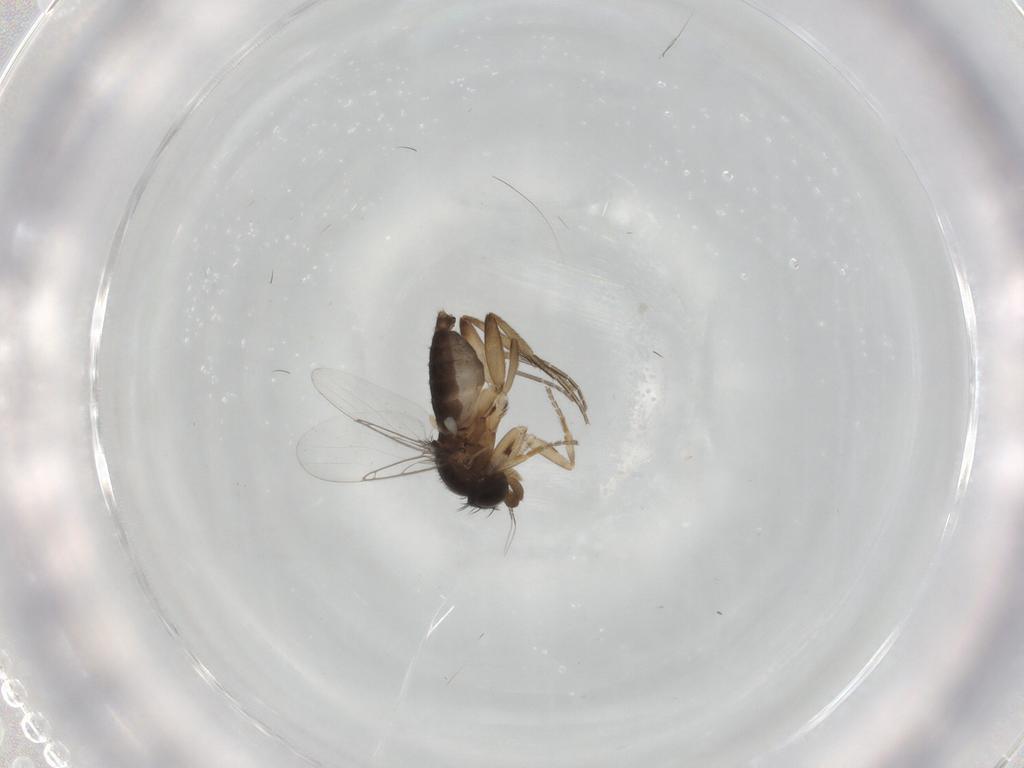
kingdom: Animalia
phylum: Arthropoda
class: Insecta
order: Diptera
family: Phoridae
